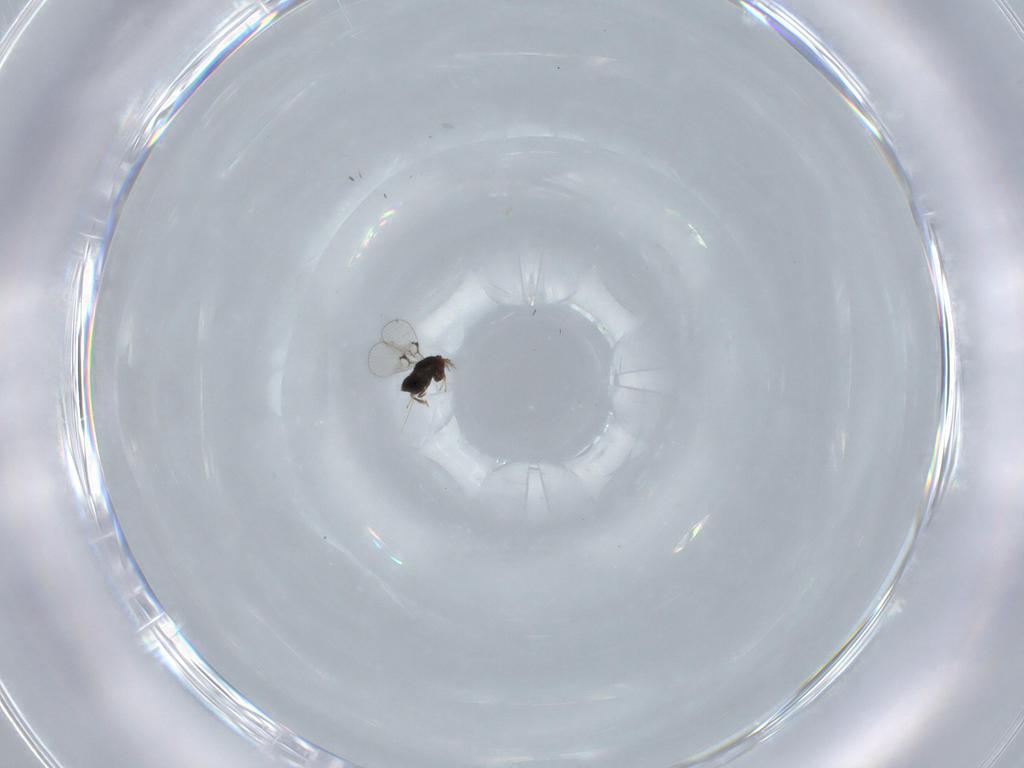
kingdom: Animalia
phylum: Arthropoda
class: Insecta
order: Hymenoptera
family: Trichogrammatidae
